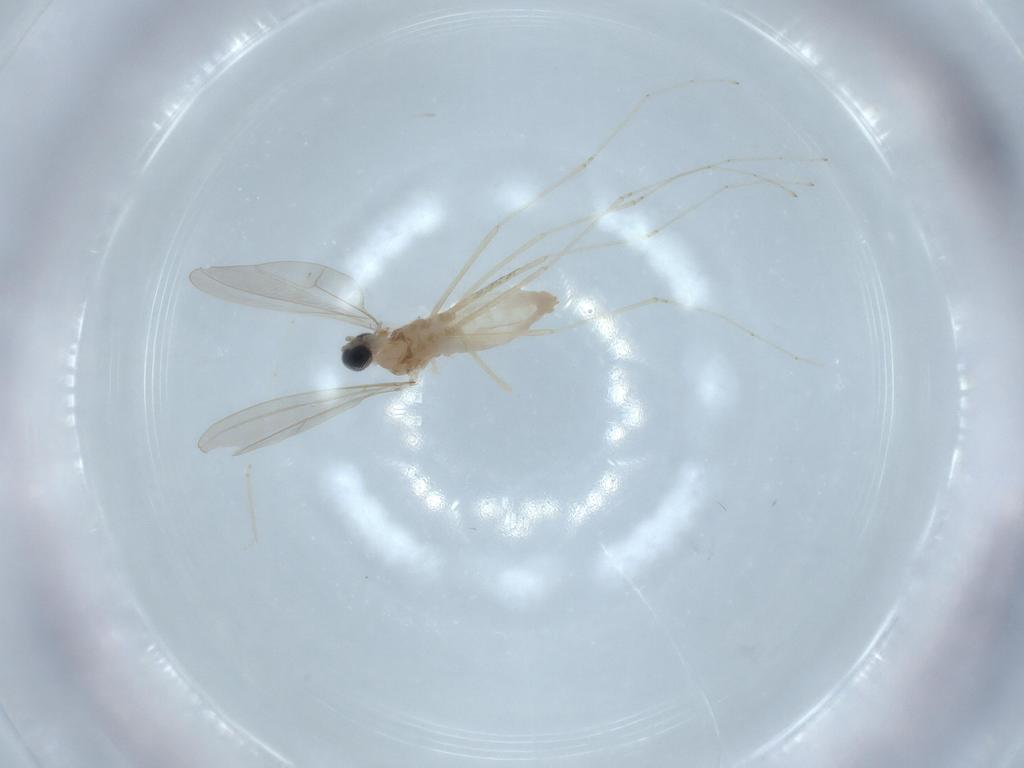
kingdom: Animalia
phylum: Arthropoda
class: Insecta
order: Diptera
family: Cecidomyiidae
